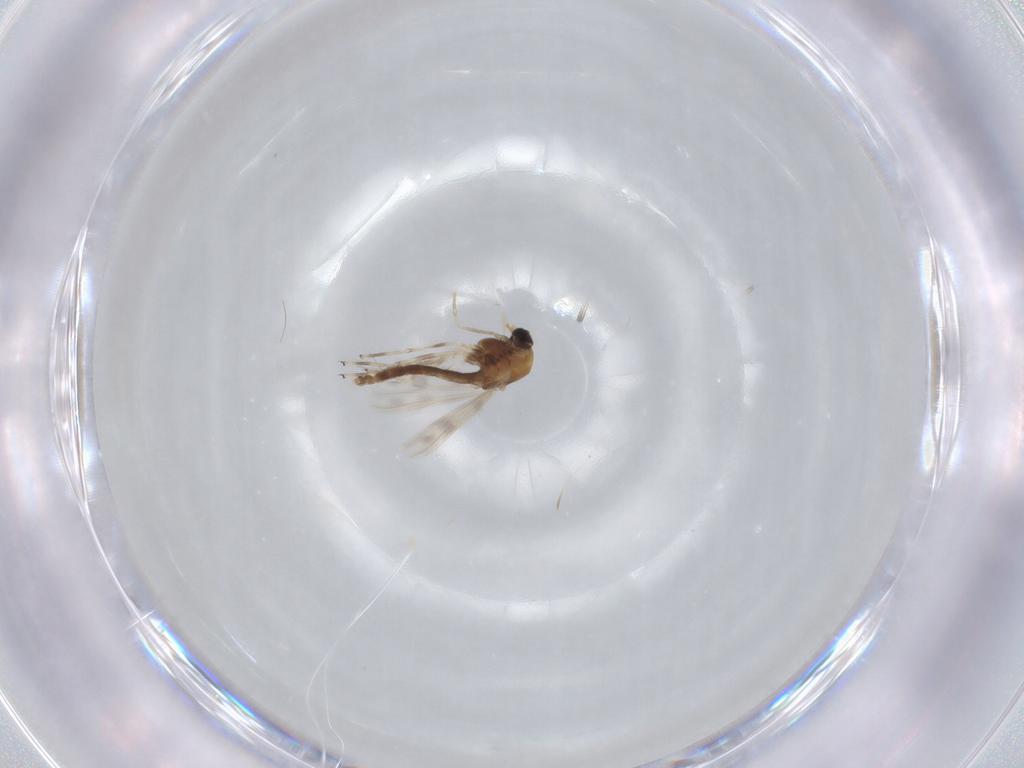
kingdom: Animalia
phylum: Arthropoda
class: Insecta
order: Diptera
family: Chironomidae
